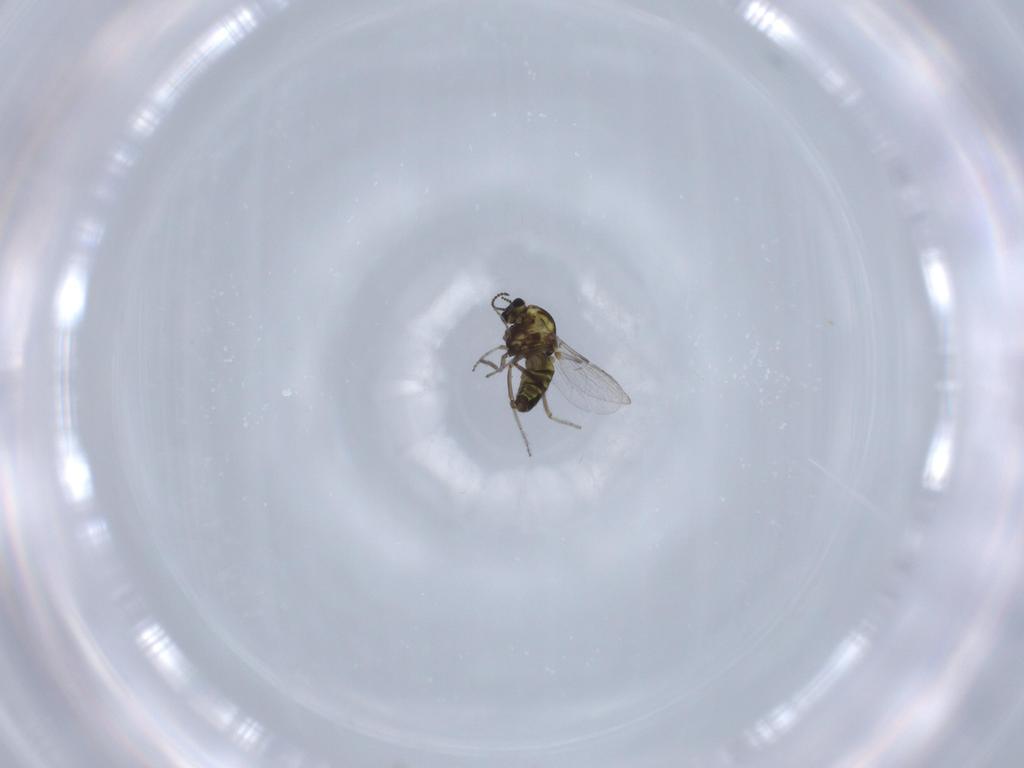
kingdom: Animalia
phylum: Arthropoda
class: Insecta
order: Diptera
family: Ceratopogonidae
